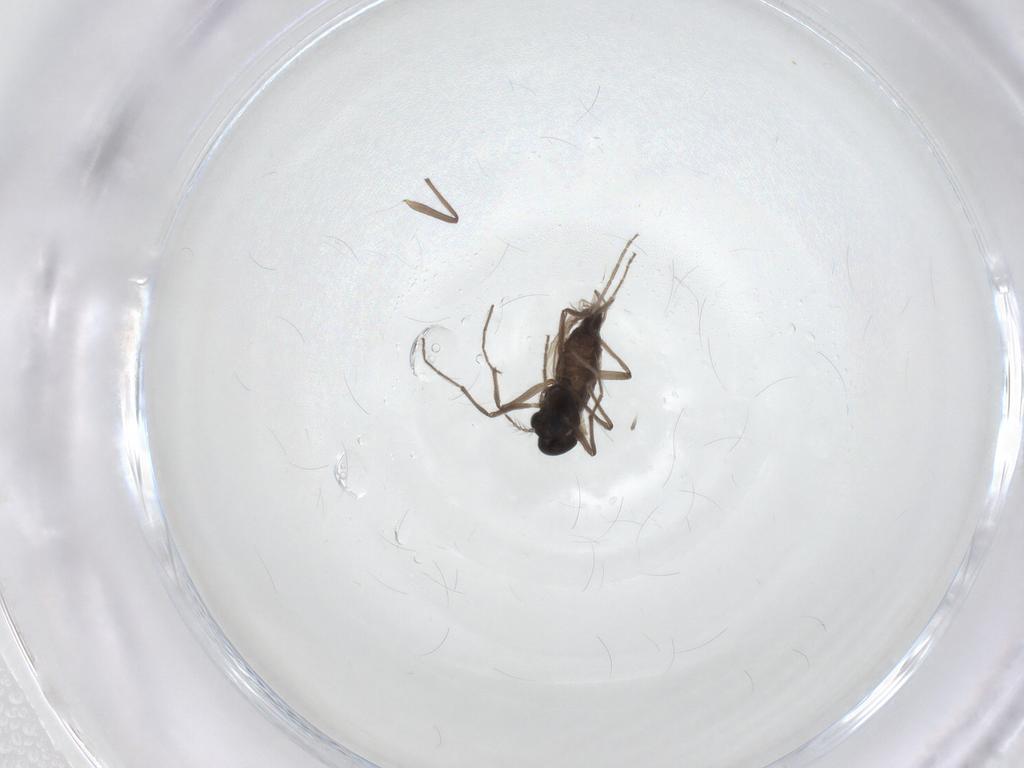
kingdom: Animalia
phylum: Arthropoda
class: Insecta
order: Diptera
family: Chironomidae
